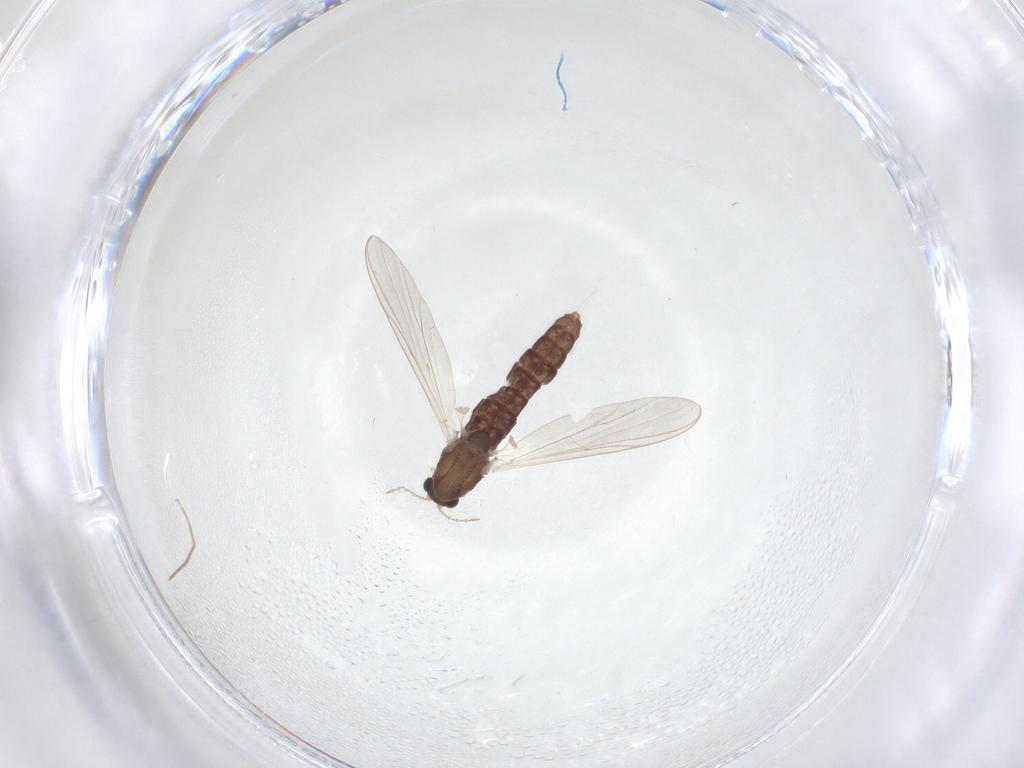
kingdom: Animalia
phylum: Arthropoda
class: Insecta
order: Diptera
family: Chironomidae
